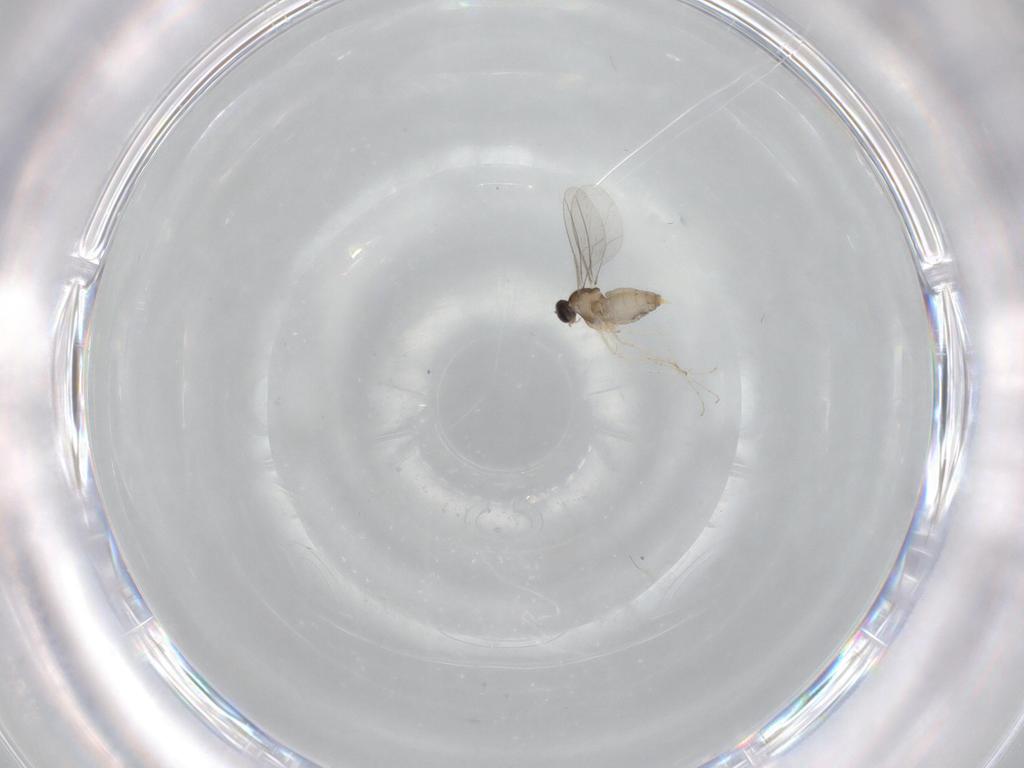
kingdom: Animalia
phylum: Arthropoda
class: Insecta
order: Diptera
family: Cecidomyiidae
